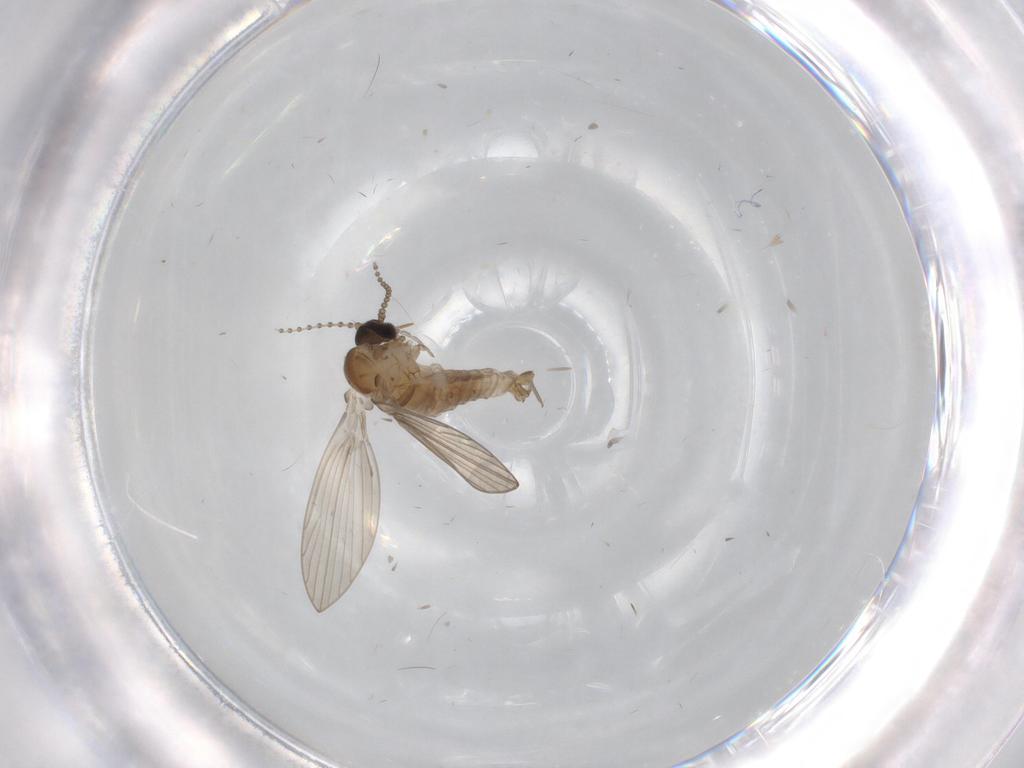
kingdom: Animalia
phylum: Arthropoda
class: Insecta
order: Diptera
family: Psychodidae
